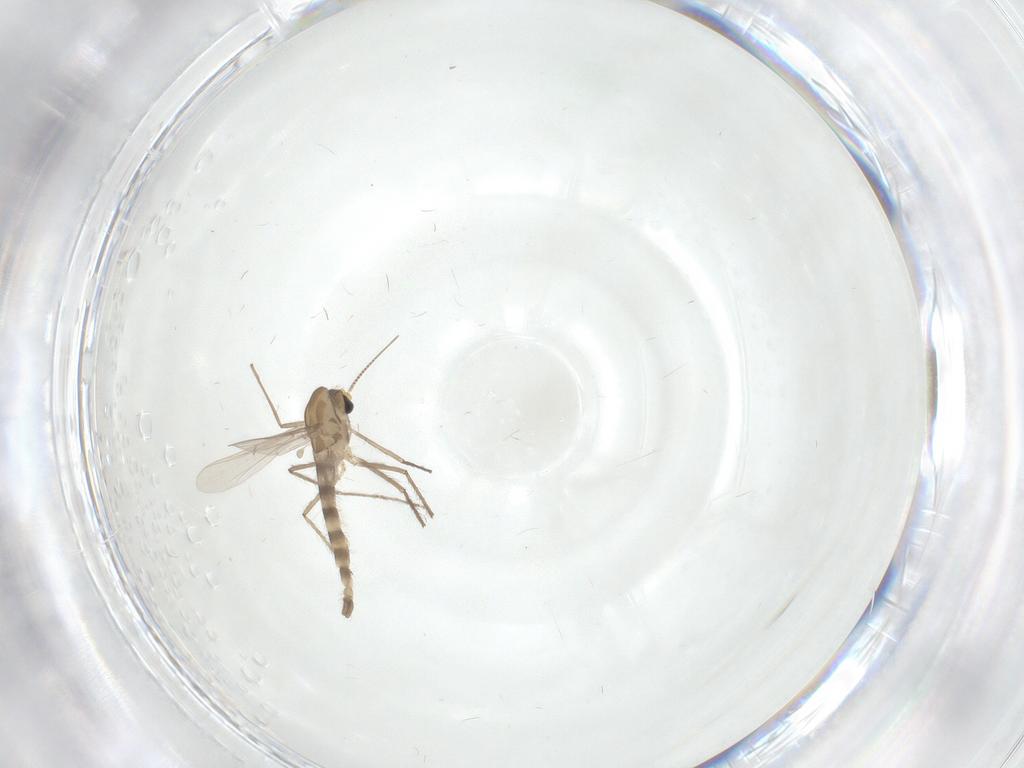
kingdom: Animalia
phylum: Arthropoda
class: Insecta
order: Diptera
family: Chironomidae
